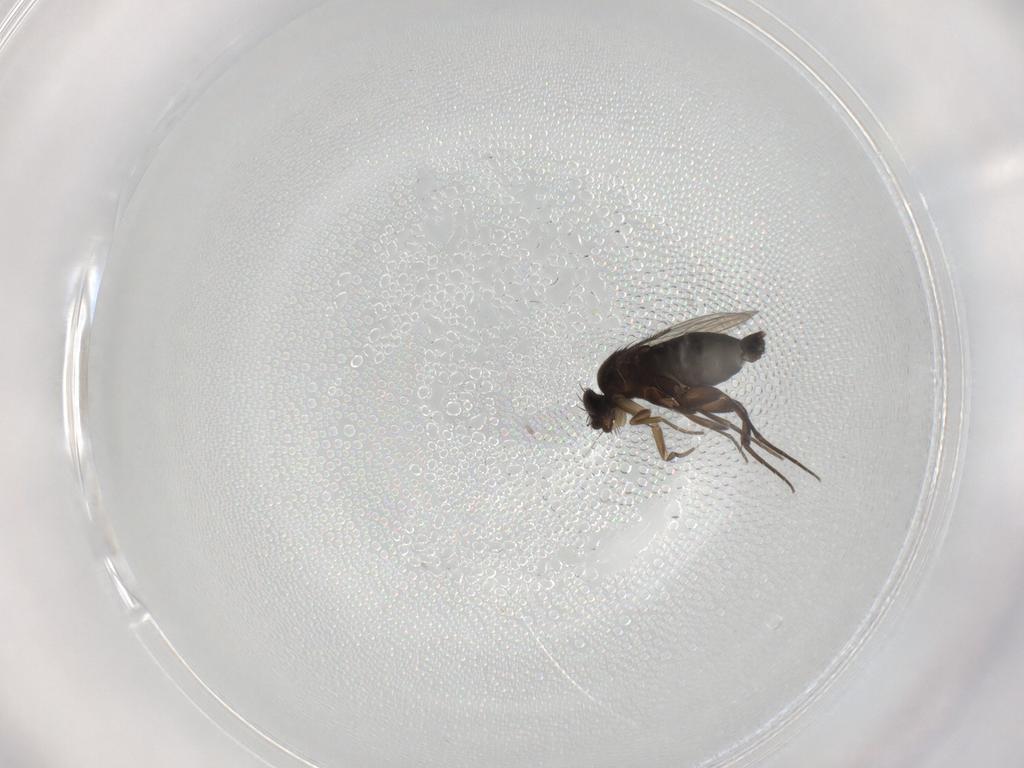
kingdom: Animalia
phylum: Arthropoda
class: Insecta
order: Diptera
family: Phoridae
